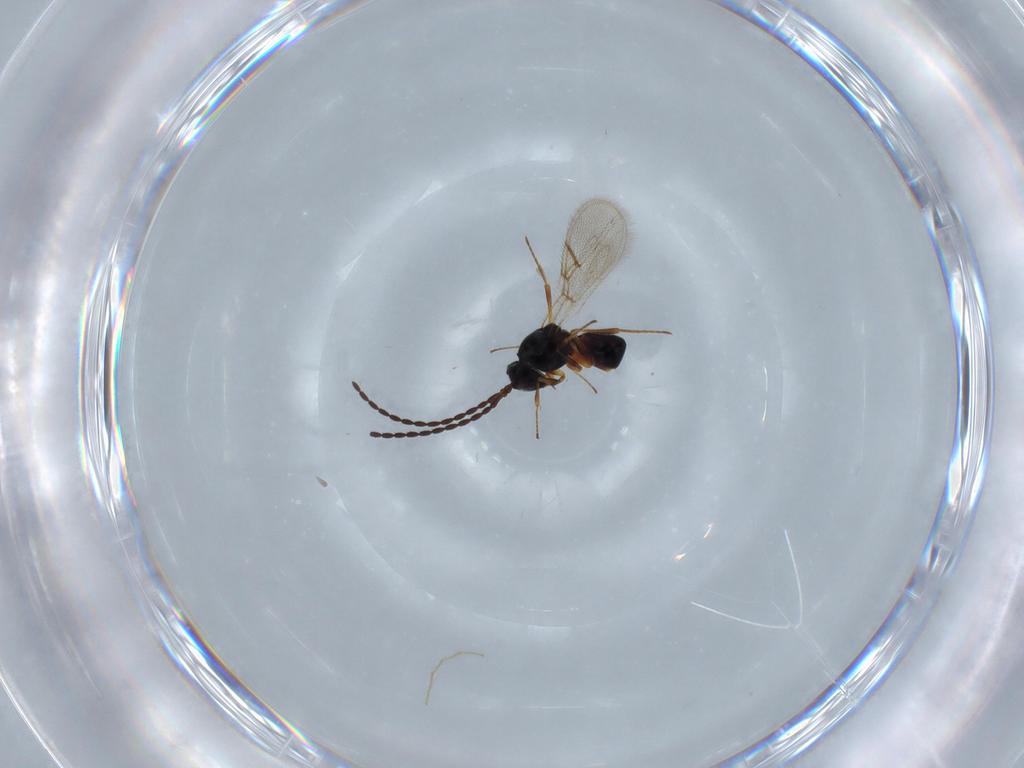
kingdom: Animalia
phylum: Arthropoda
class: Insecta
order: Hymenoptera
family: Figitidae
